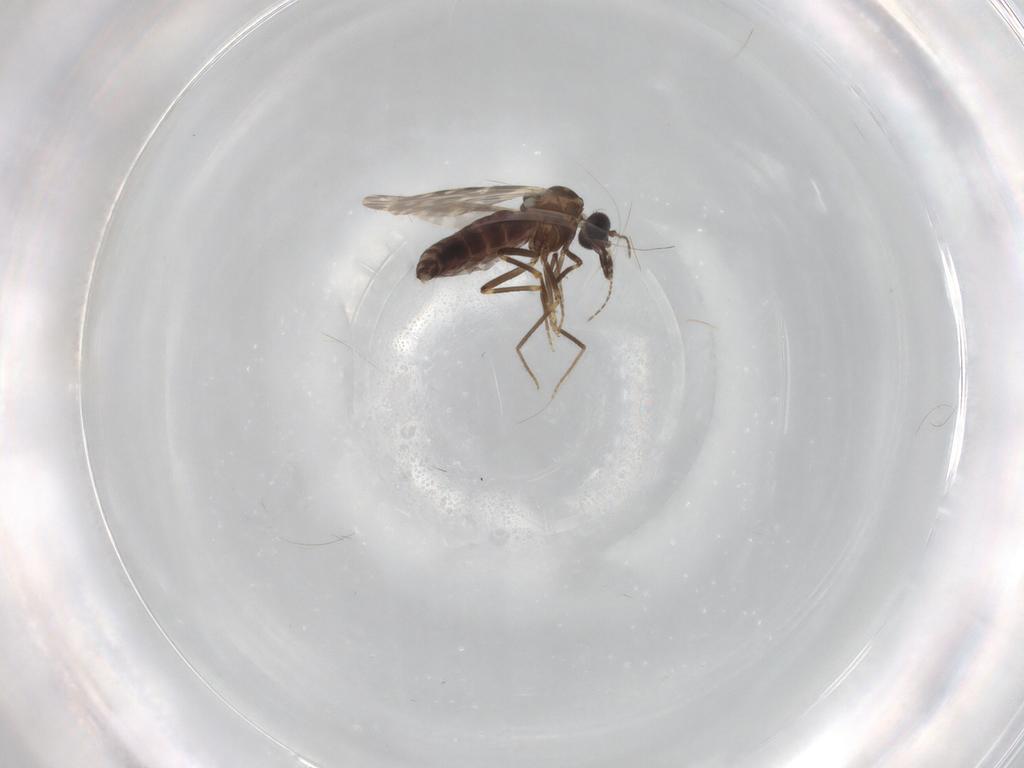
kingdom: Animalia
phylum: Arthropoda
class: Insecta
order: Diptera
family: Ceratopogonidae
